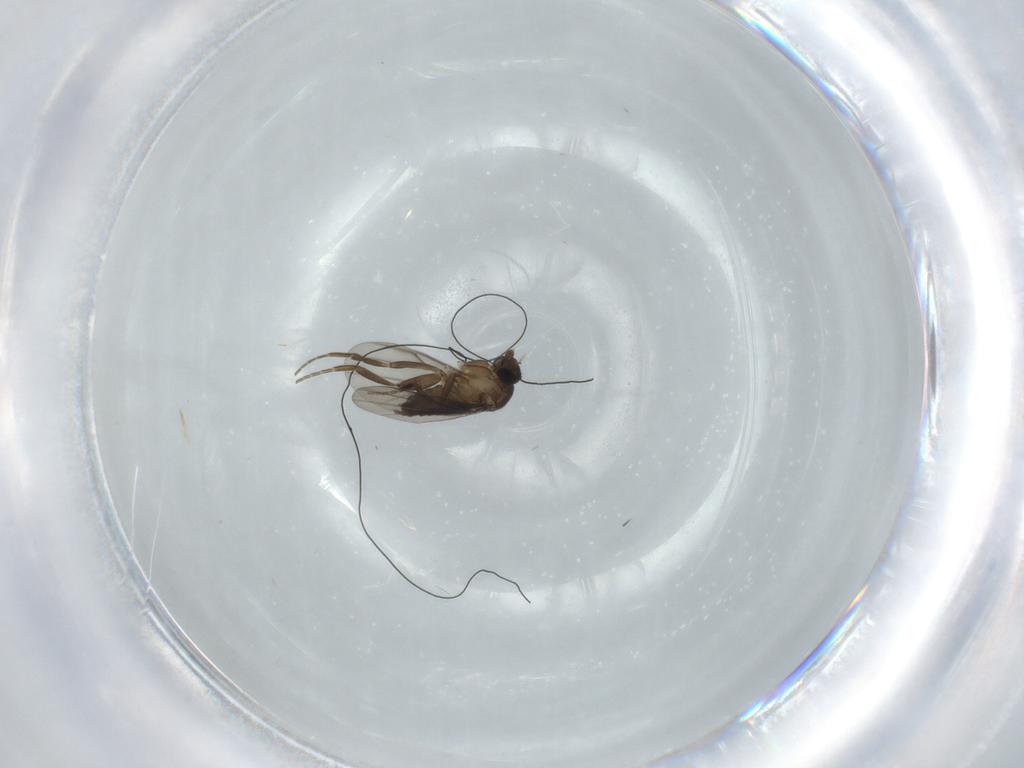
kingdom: Animalia
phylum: Arthropoda
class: Insecta
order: Diptera
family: Phoridae
